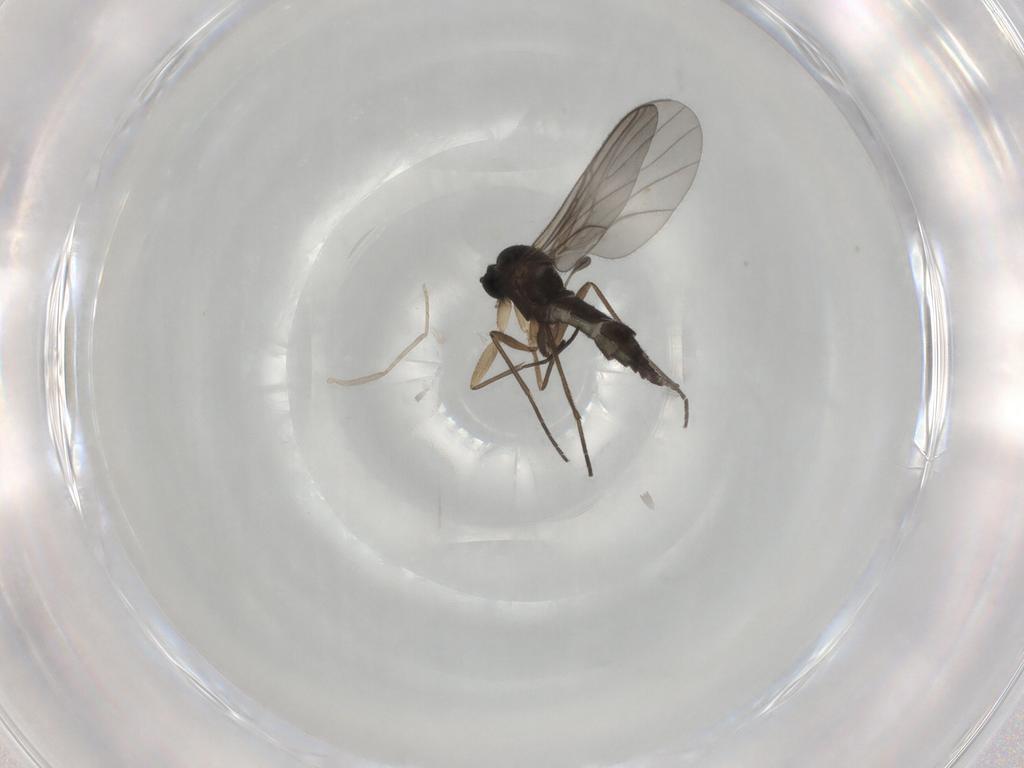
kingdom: Animalia
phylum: Arthropoda
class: Insecta
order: Diptera
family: Sciaridae
